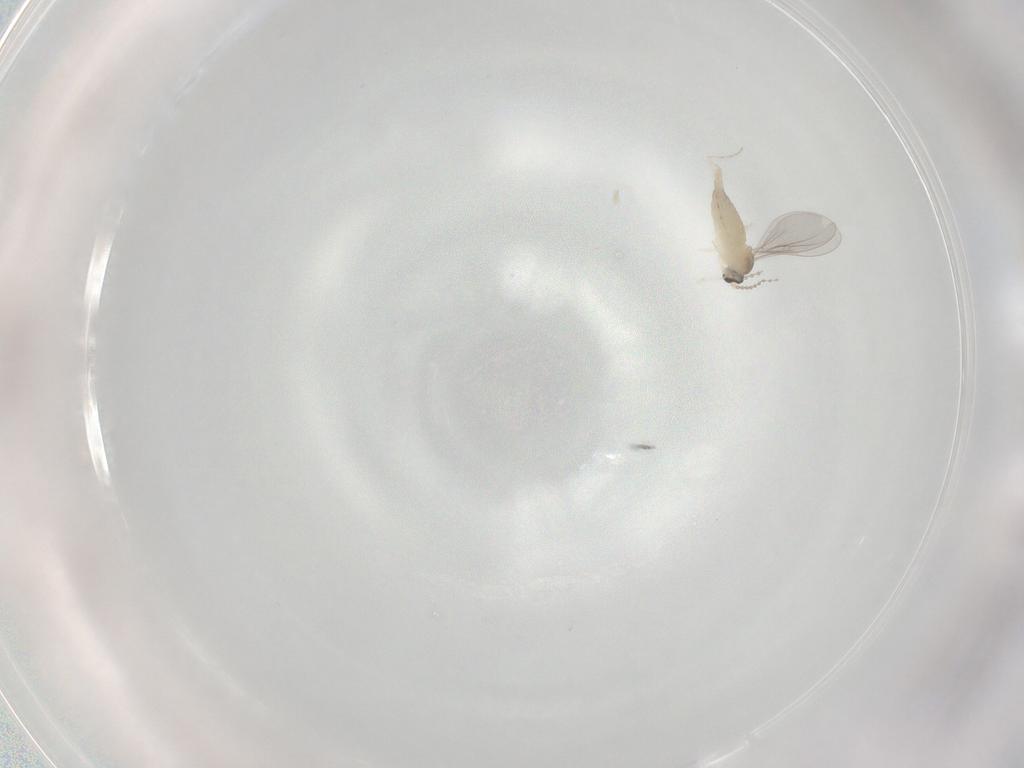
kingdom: Animalia
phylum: Arthropoda
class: Insecta
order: Diptera
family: Cecidomyiidae
